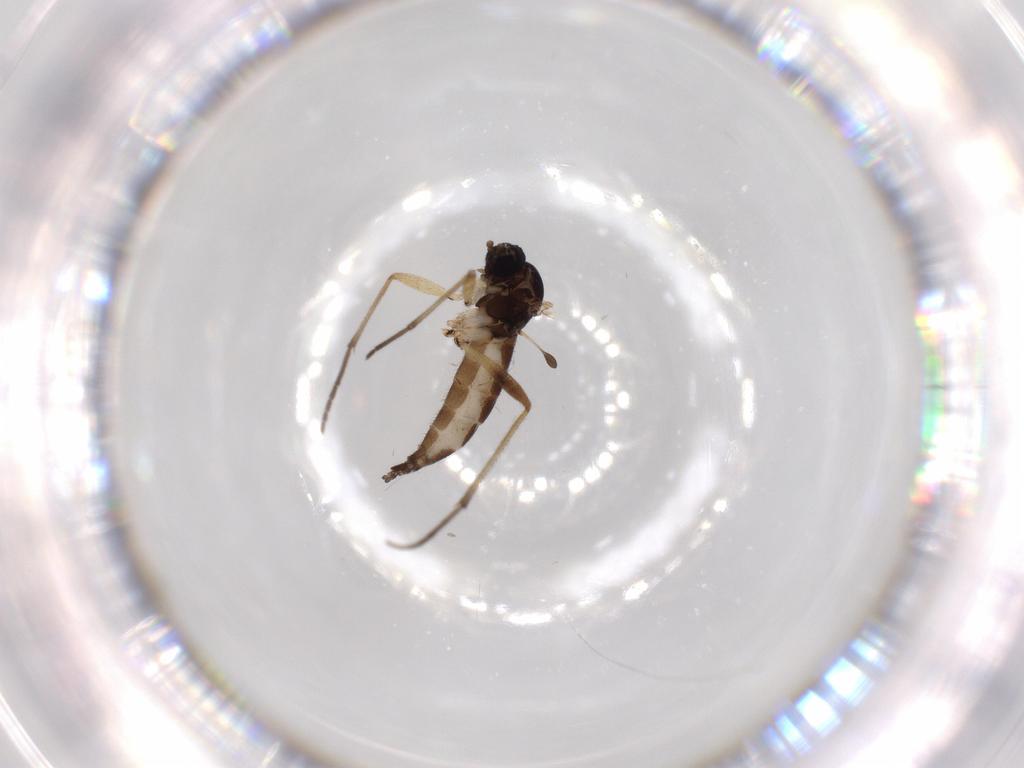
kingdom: Animalia
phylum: Arthropoda
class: Insecta
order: Diptera
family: Sciaridae
